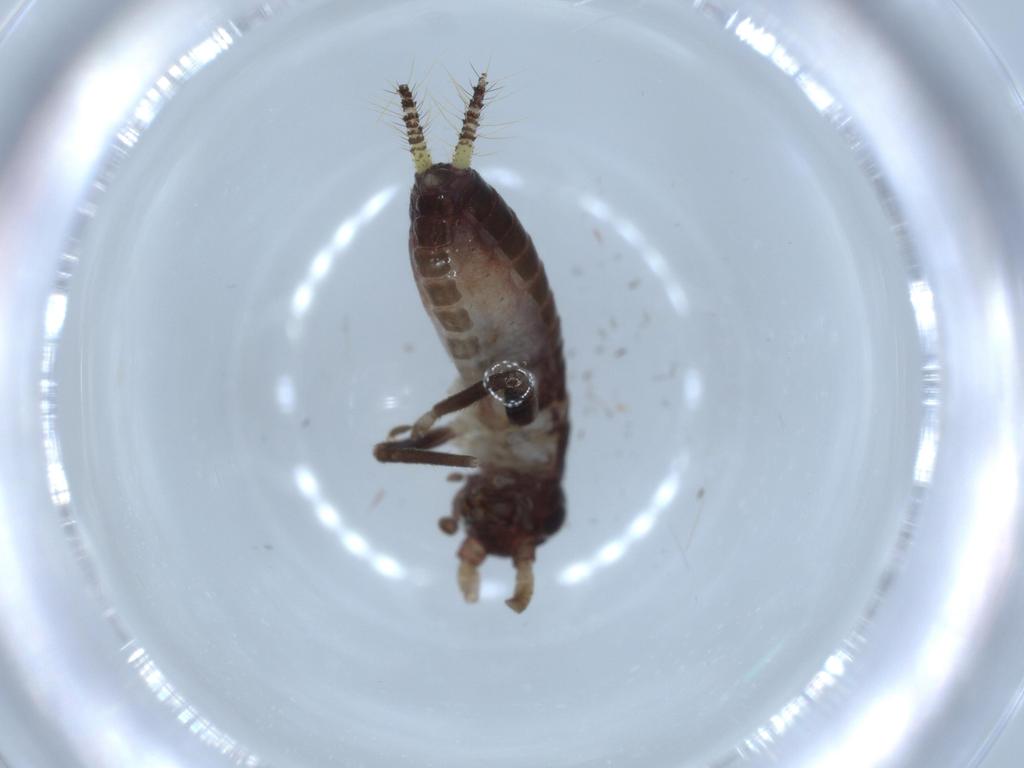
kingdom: Animalia
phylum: Arthropoda
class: Insecta
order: Orthoptera
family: Gryllidae
